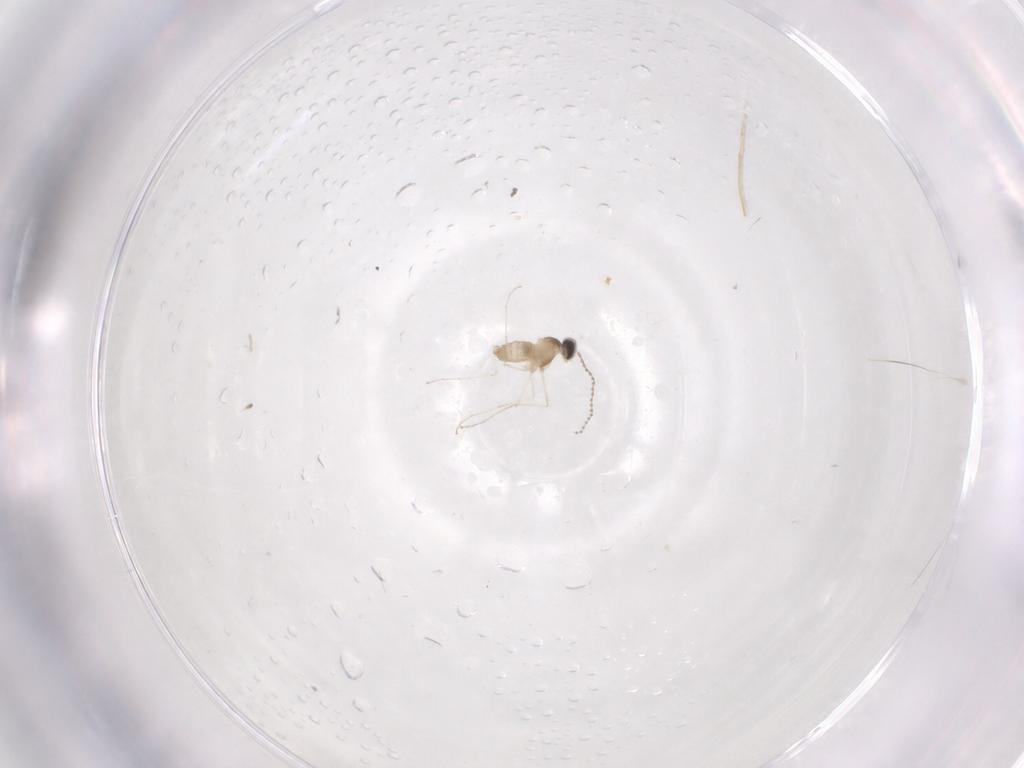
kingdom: Animalia
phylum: Arthropoda
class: Insecta
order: Diptera
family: Cecidomyiidae
